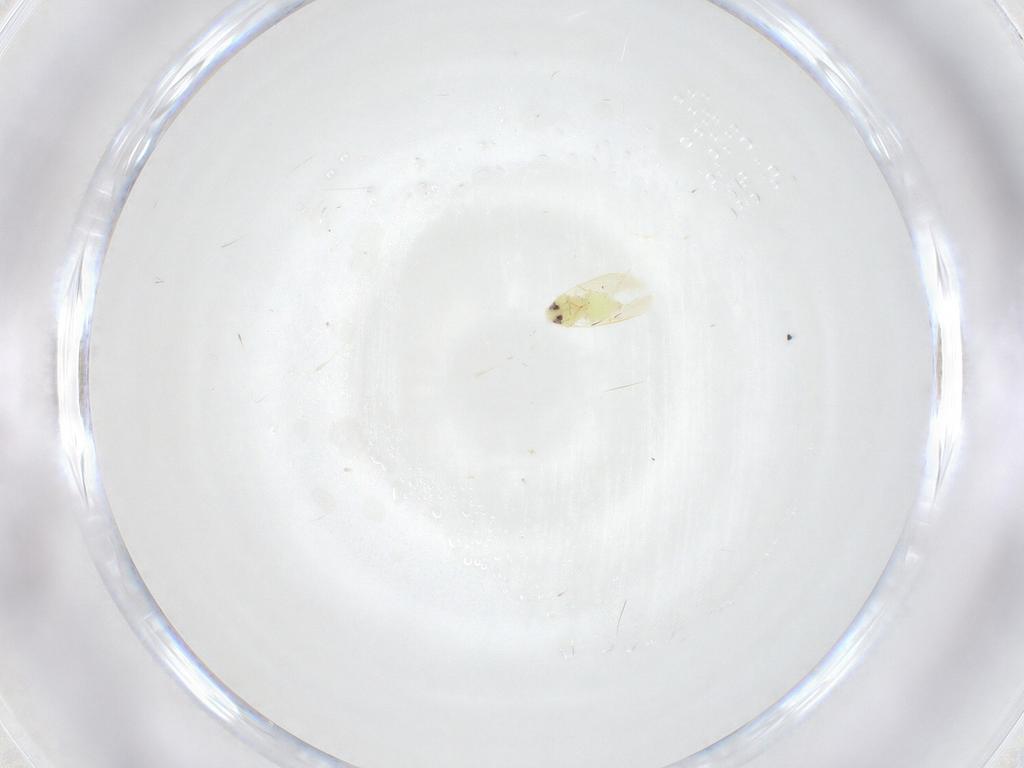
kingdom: Animalia
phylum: Arthropoda
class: Insecta
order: Hemiptera
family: Aleyrodidae
